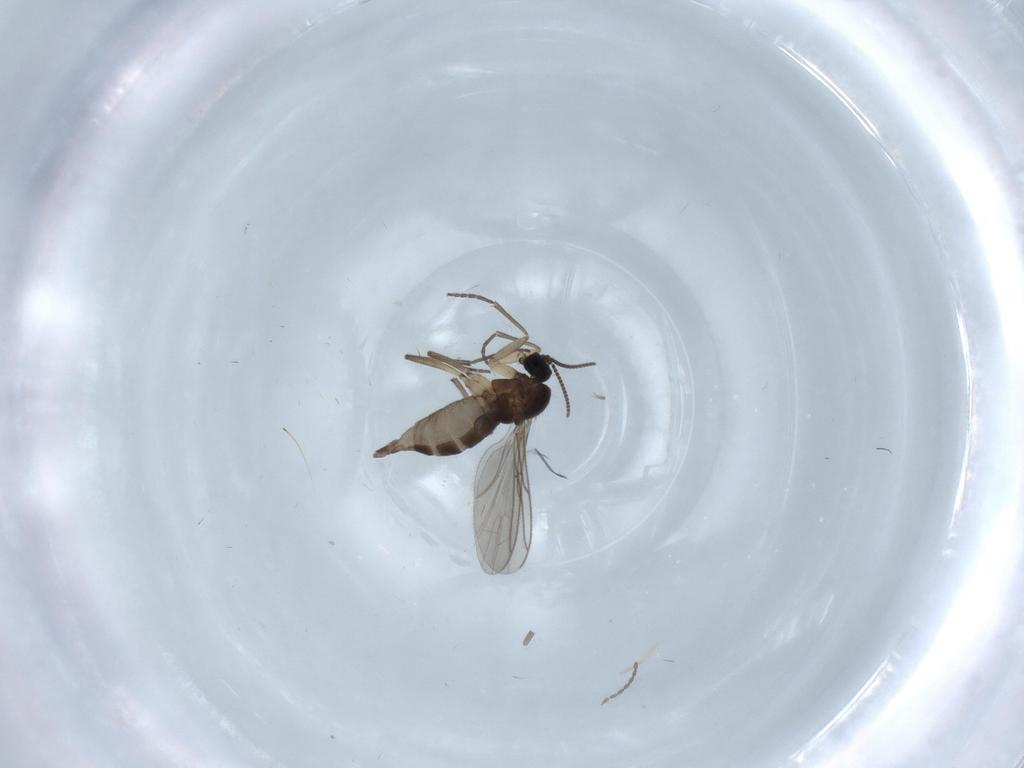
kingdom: Animalia
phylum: Arthropoda
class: Insecta
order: Diptera
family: Sciaridae
